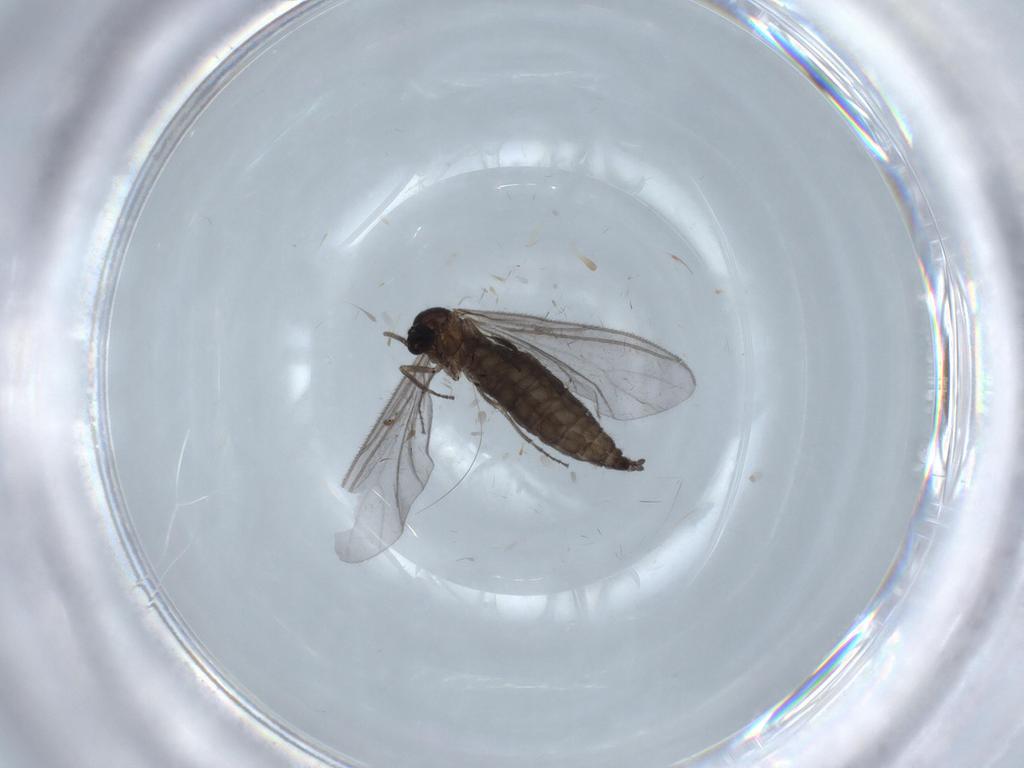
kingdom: Animalia
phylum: Arthropoda
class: Insecta
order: Diptera
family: Sciaridae
